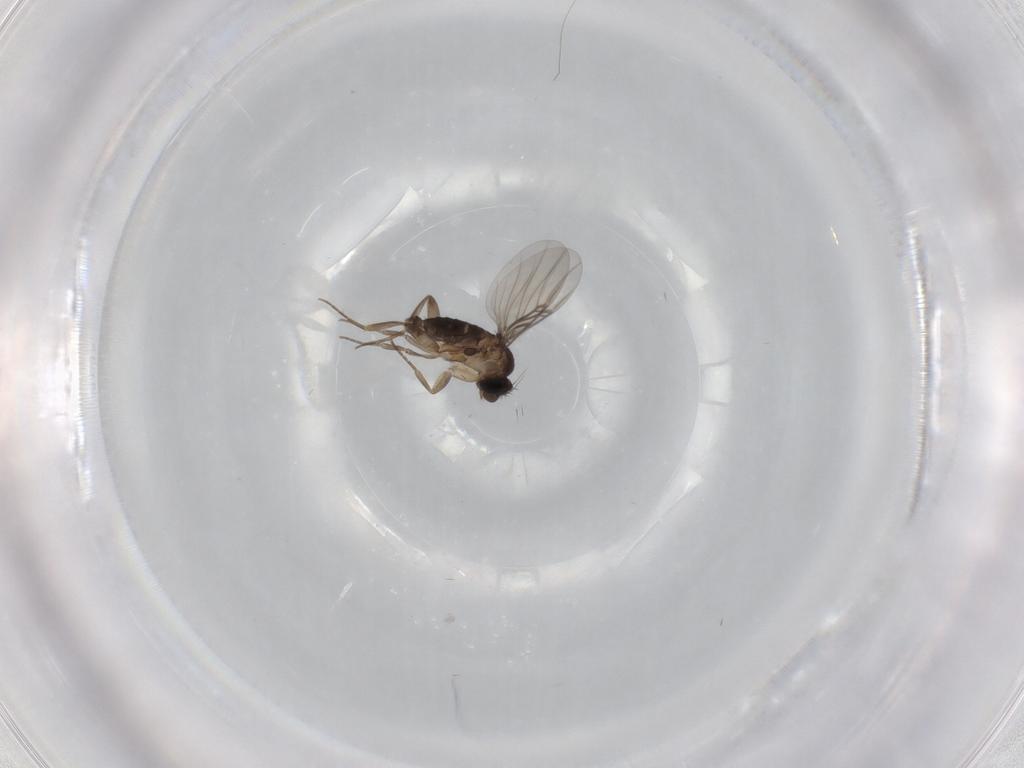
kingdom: Animalia
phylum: Arthropoda
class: Insecta
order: Diptera
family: Phoridae
